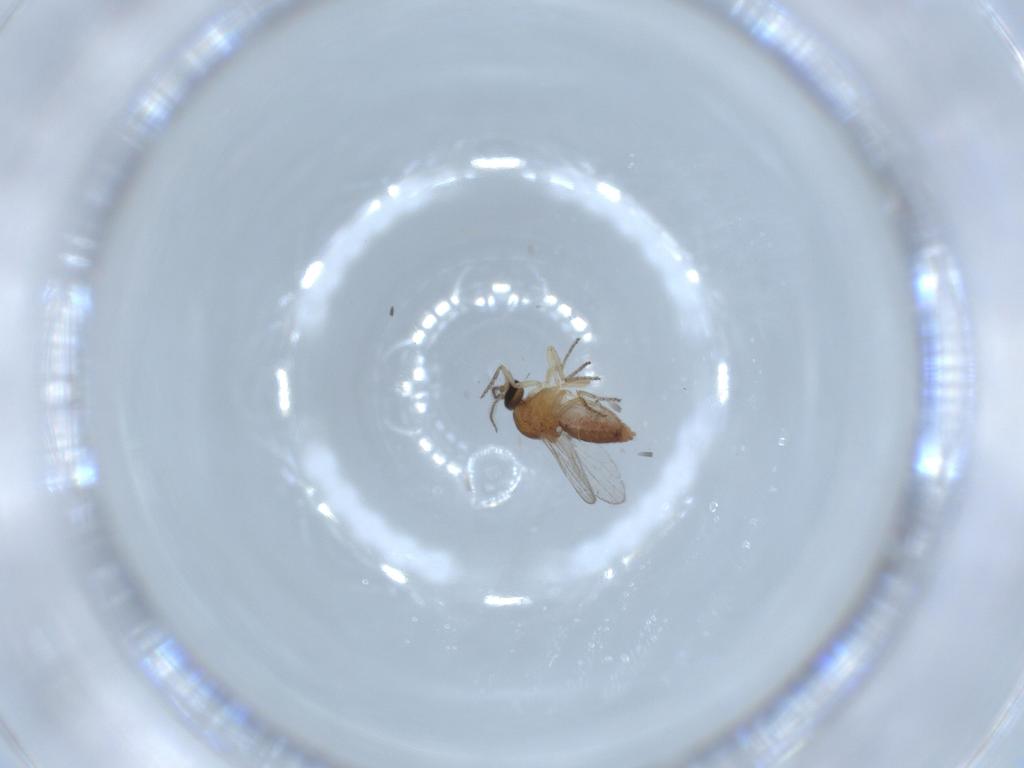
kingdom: Animalia
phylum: Arthropoda
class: Insecta
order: Diptera
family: Ceratopogonidae
